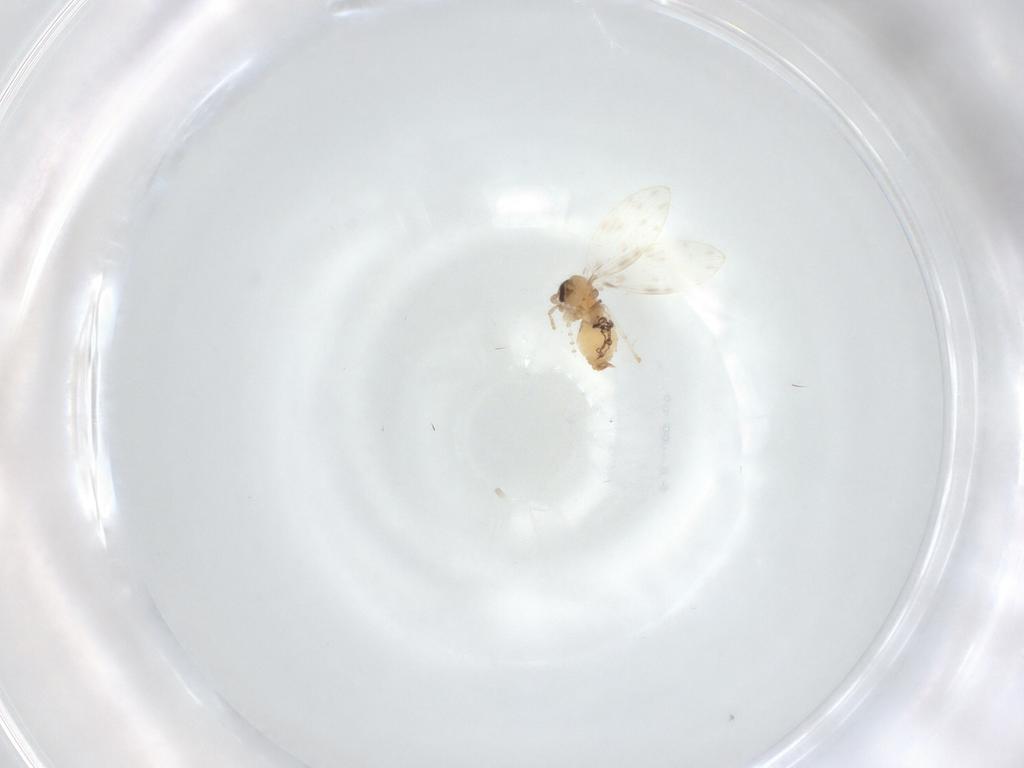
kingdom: Animalia
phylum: Arthropoda
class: Insecta
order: Diptera
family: Psychodidae
